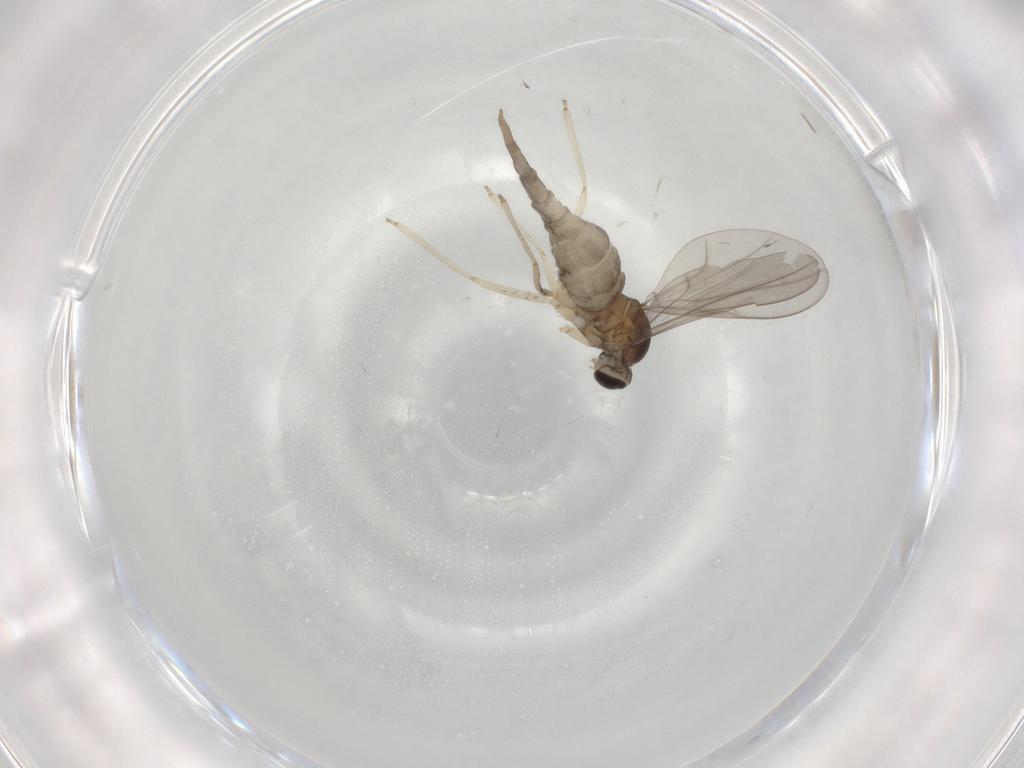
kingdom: Animalia
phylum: Arthropoda
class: Insecta
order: Diptera
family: Cecidomyiidae
